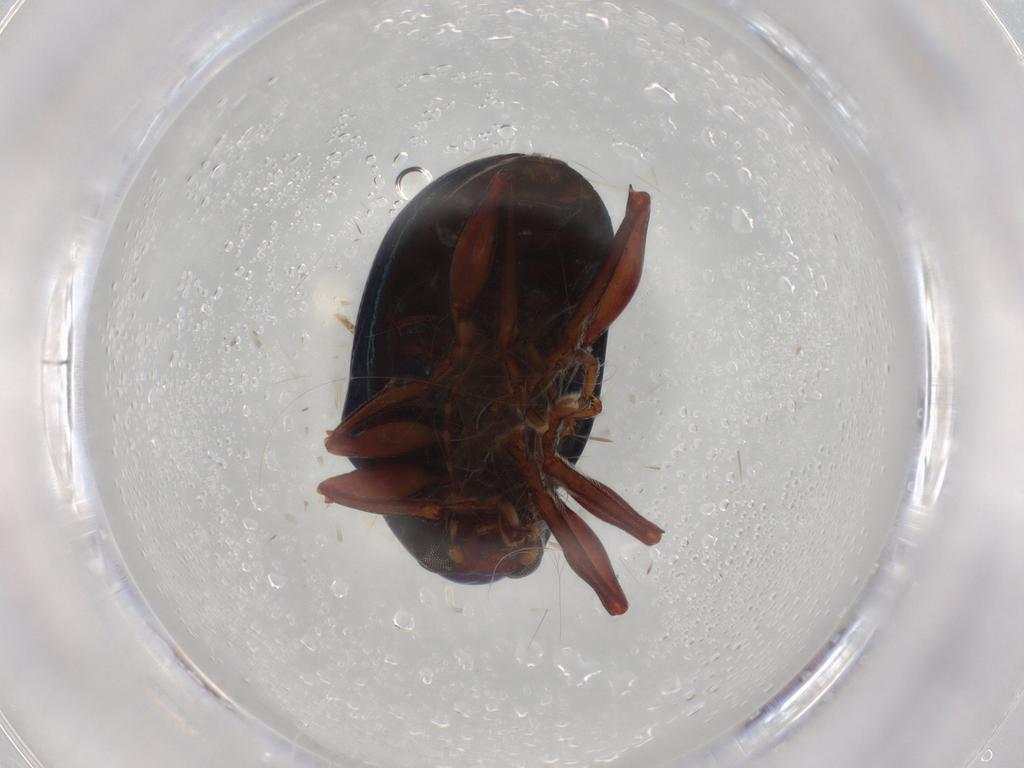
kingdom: Animalia
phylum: Arthropoda
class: Insecta
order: Coleoptera
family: Chrysomelidae
